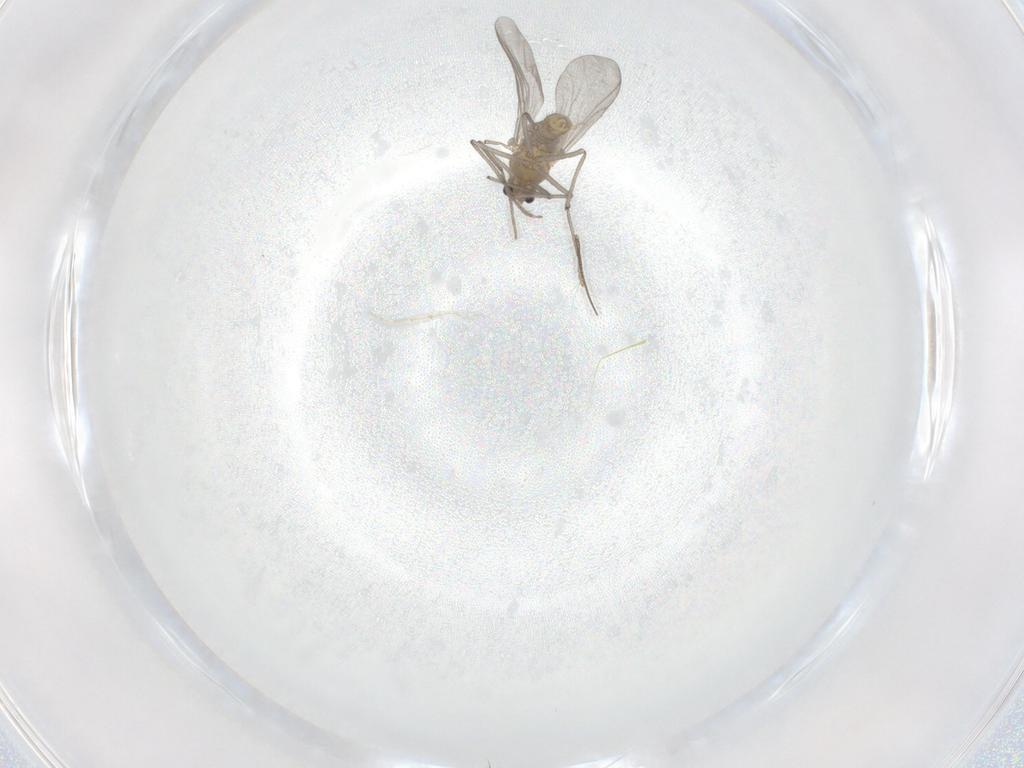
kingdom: Animalia
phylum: Arthropoda
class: Insecta
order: Diptera
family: Chironomidae
